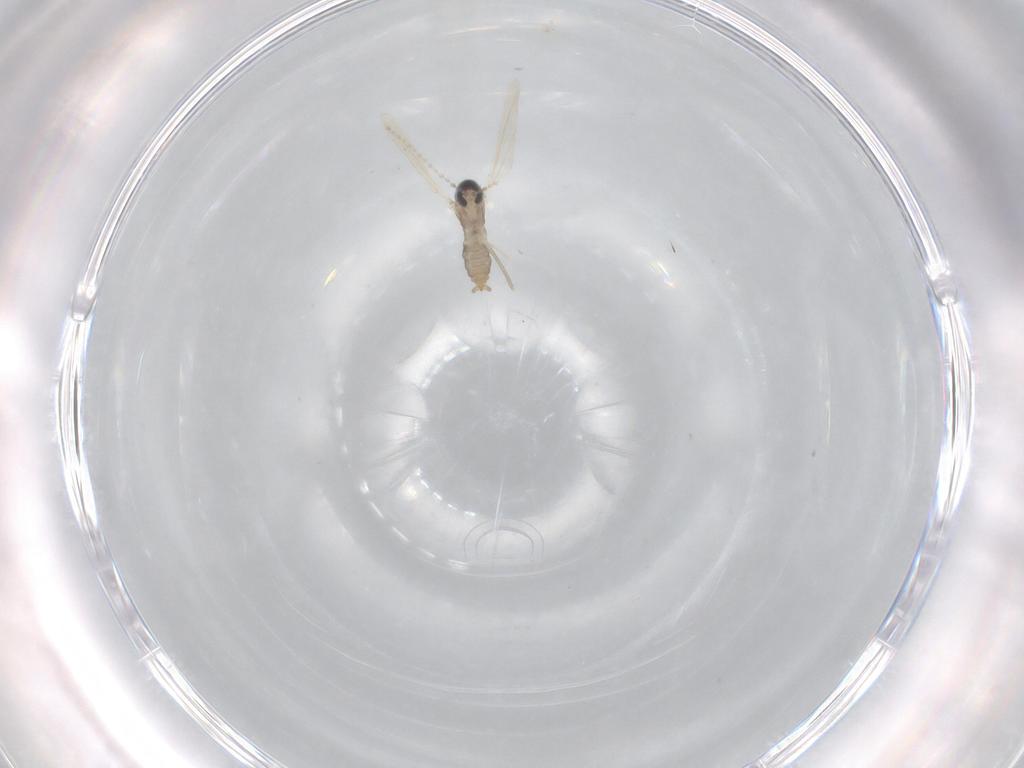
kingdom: Animalia
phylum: Arthropoda
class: Insecta
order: Diptera
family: Cecidomyiidae
